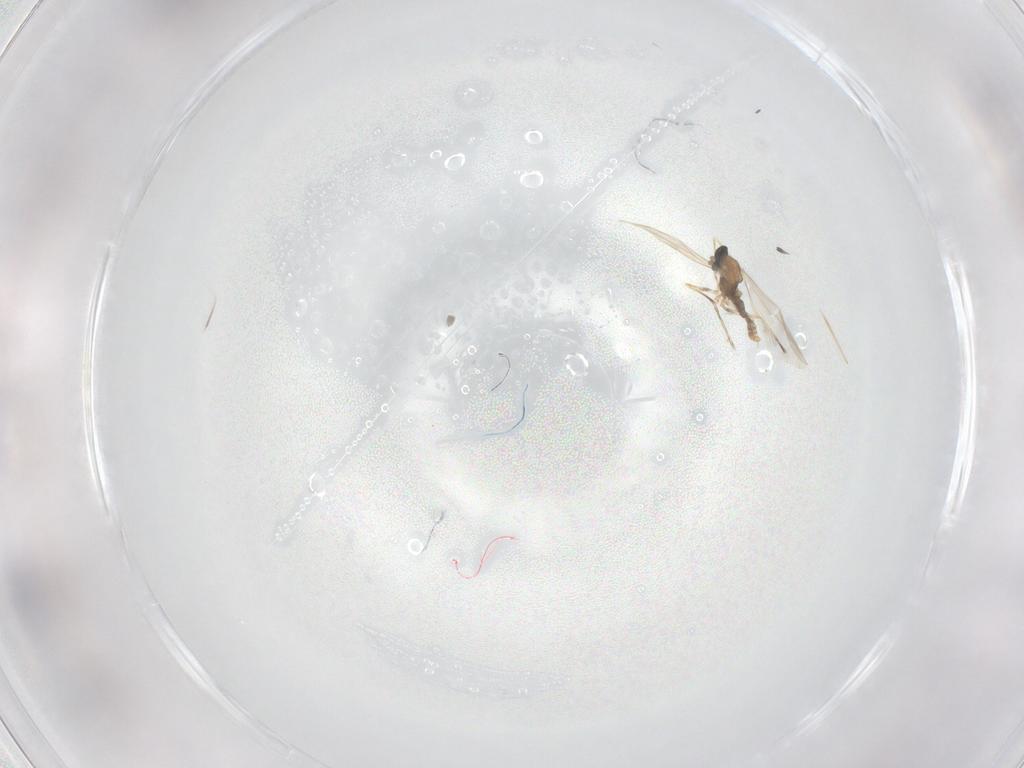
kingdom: Animalia
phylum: Arthropoda
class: Insecta
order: Diptera
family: Cecidomyiidae
